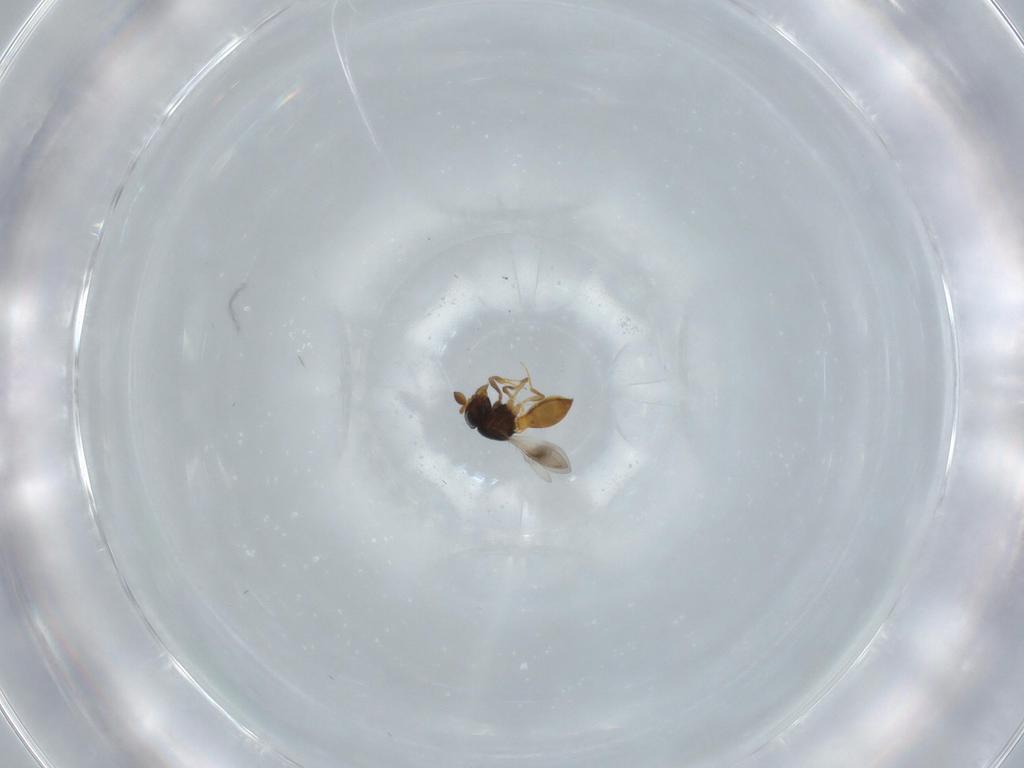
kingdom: Animalia
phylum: Arthropoda
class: Insecta
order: Hymenoptera
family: Scelionidae
